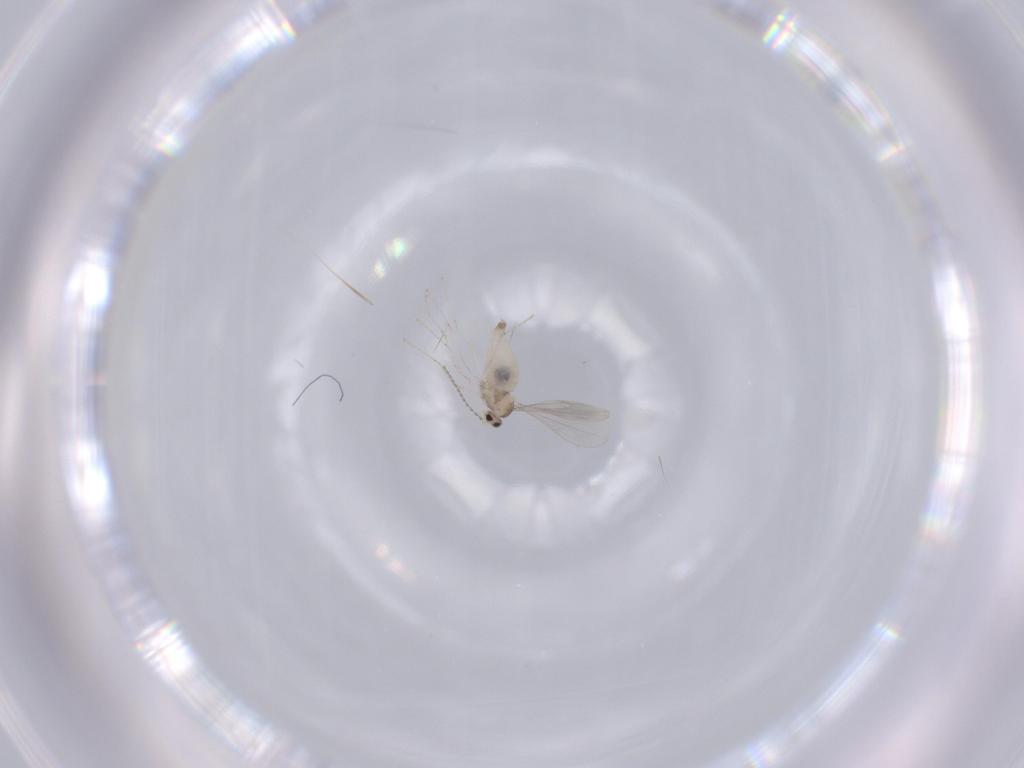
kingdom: Animalia
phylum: Arthropoda
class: Insecta
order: Diptera
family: Cecidomyiidae
